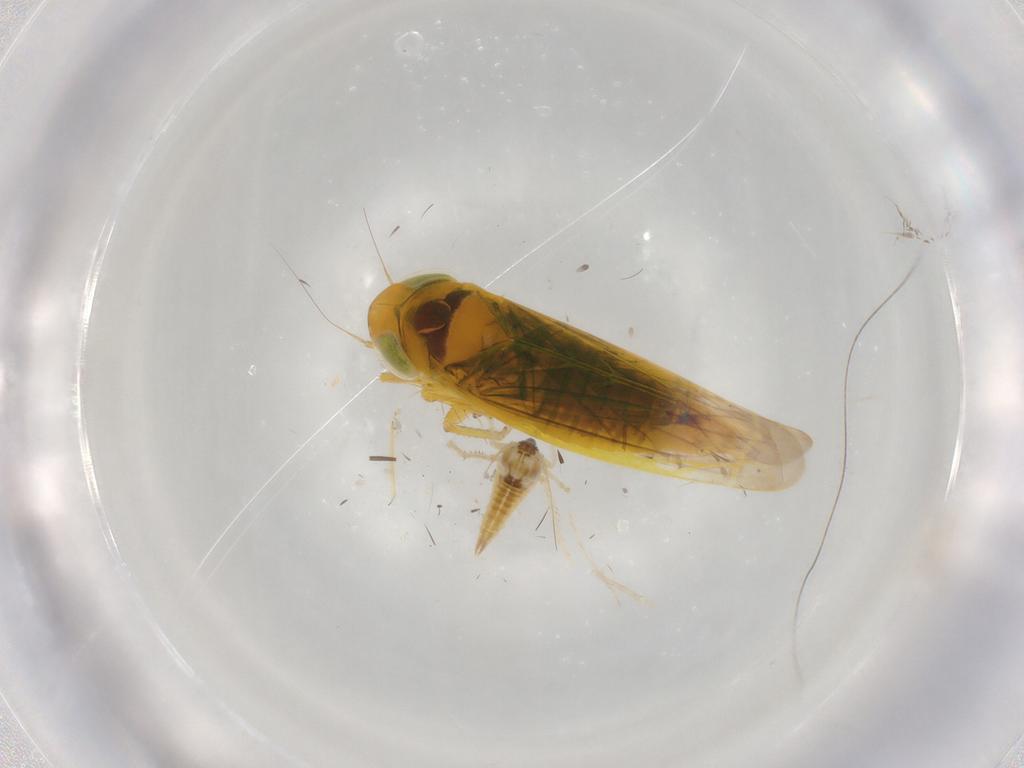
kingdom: Animalia
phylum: Arthropoda
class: Insecta
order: Hemiptera
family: Cicadellidae
